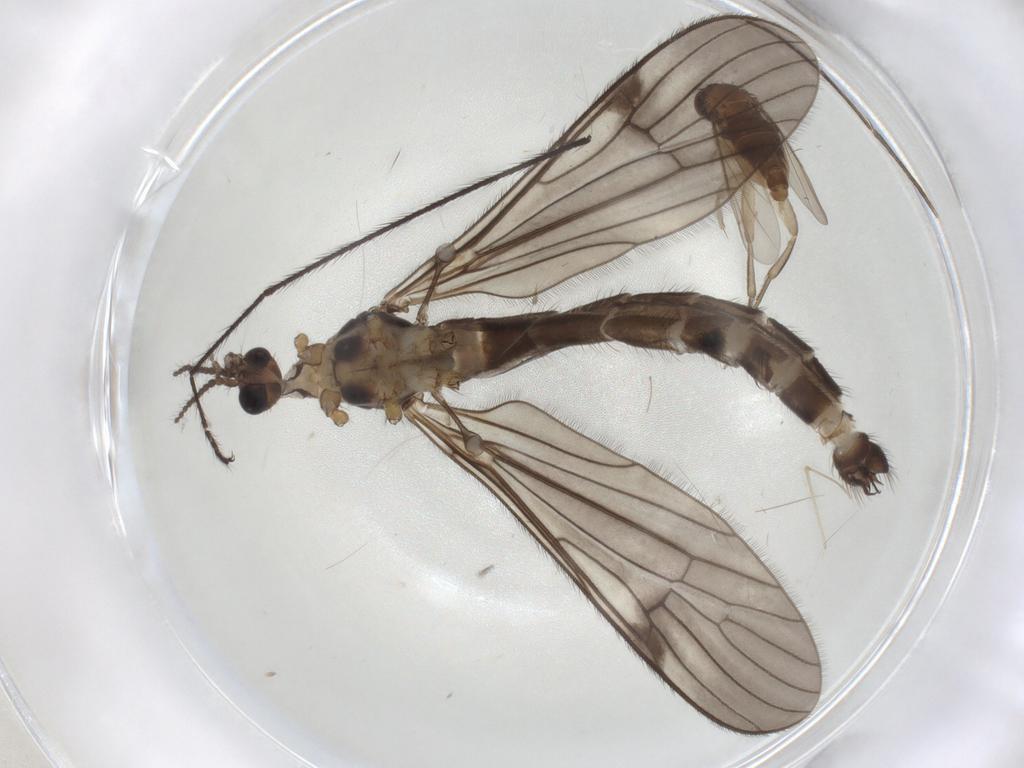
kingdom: Animalia
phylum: Arthropoda
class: Insecta
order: Diptera
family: Limoniidae
